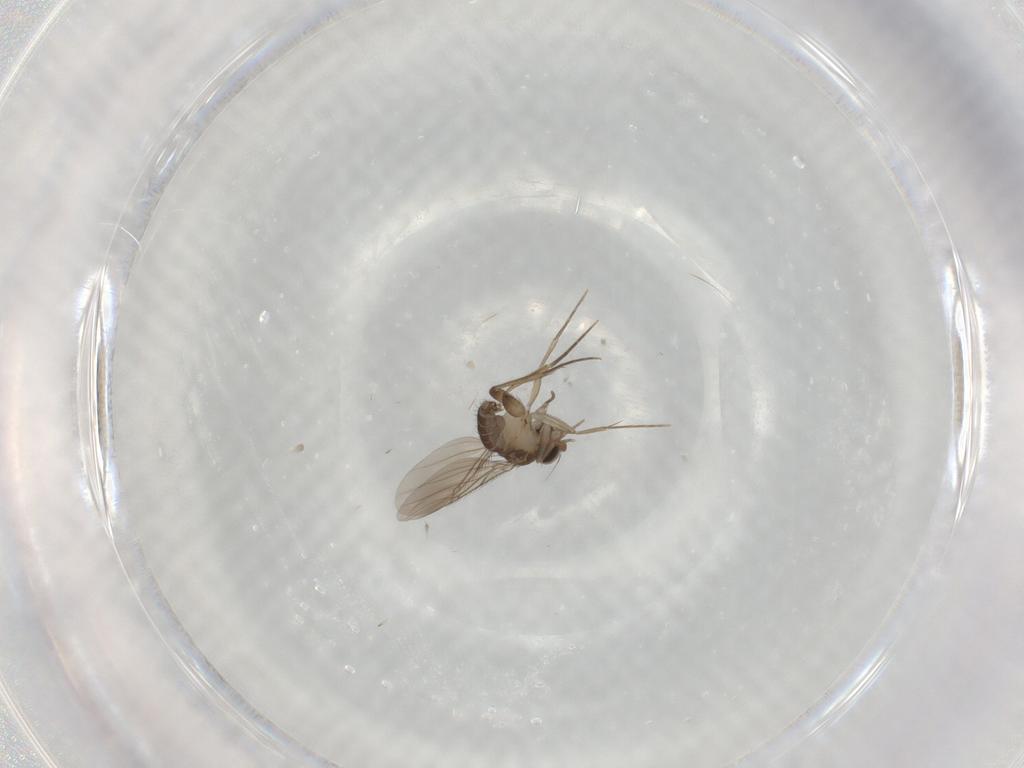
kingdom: Animalia
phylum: Arthropoda
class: Insecta
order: Diptera
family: Phoridae
